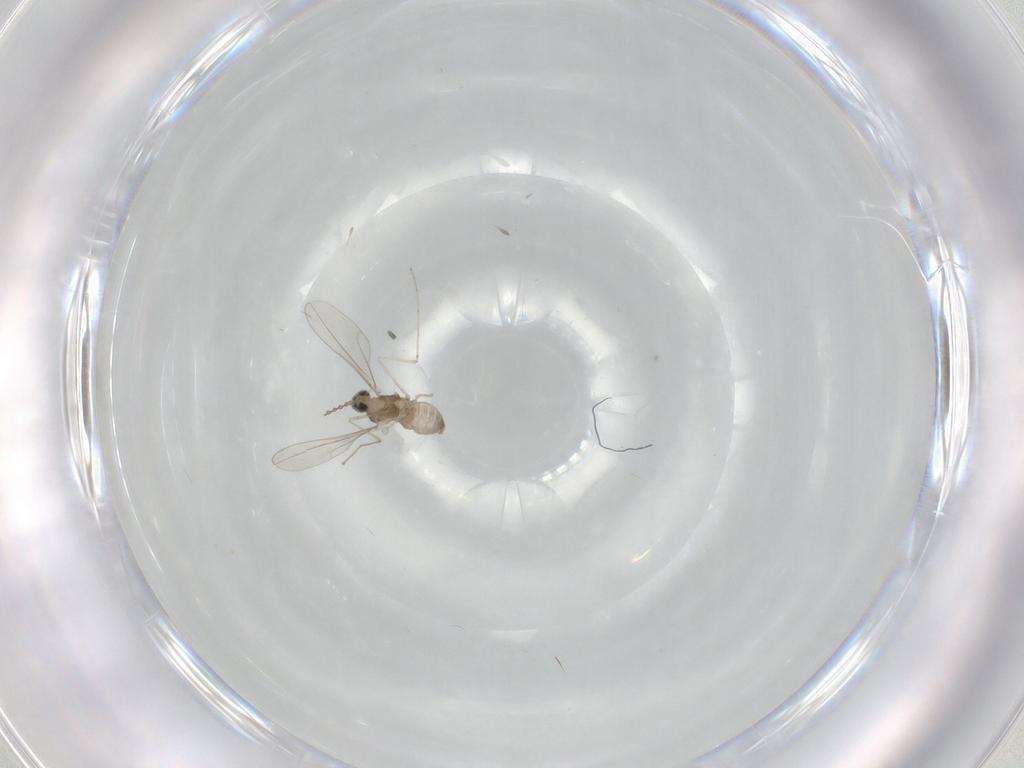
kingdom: Animalia
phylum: Arthropoda
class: Insecta
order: Diptera
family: Cecidomyiidae
